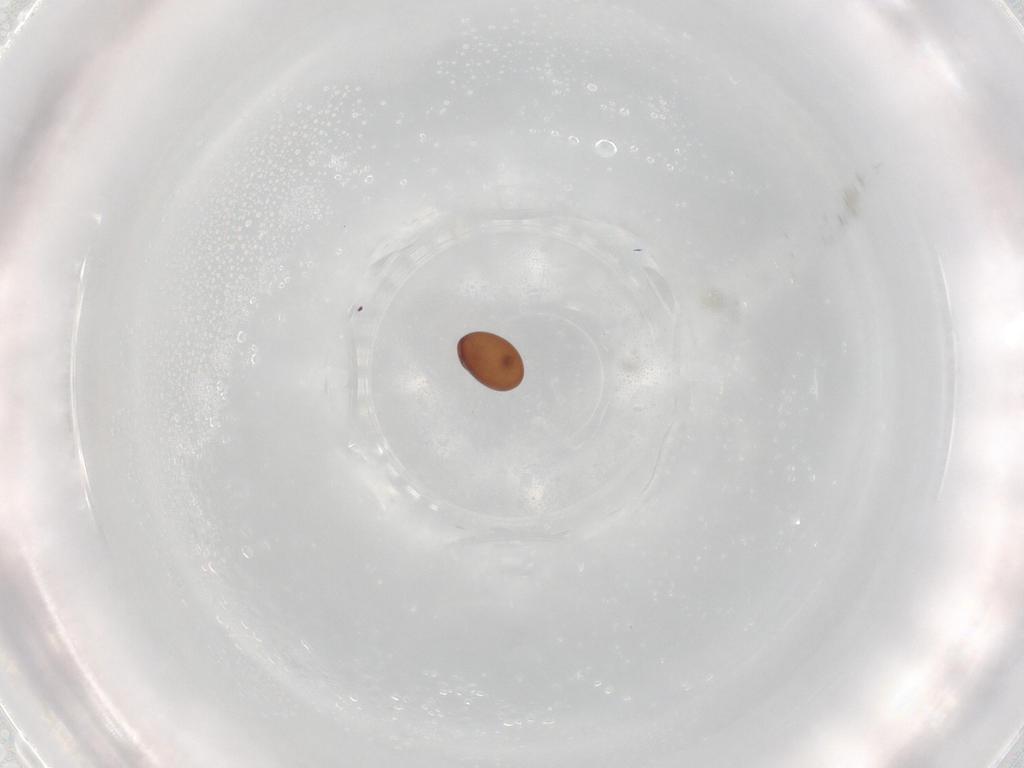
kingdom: Animalia
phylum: Arthropoda
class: Arachnida
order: Sarcoptiformes
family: Phthiracaridae
